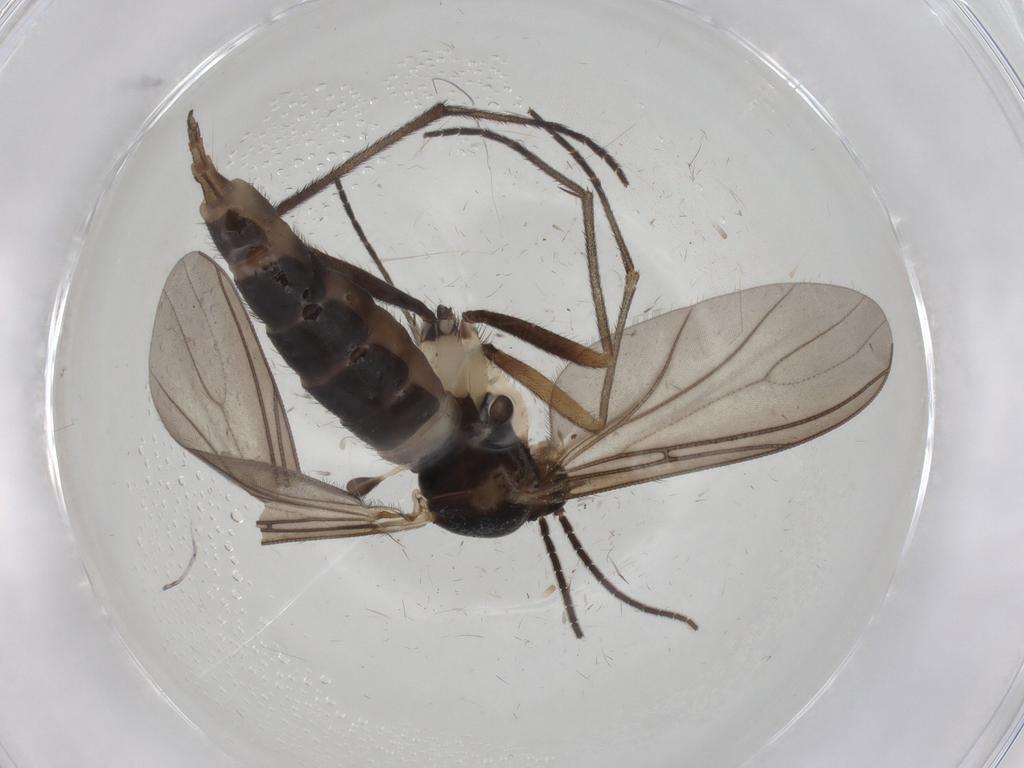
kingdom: Animalia
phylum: Arthropoda
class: Insecta
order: Diptera
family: Sciaridae
